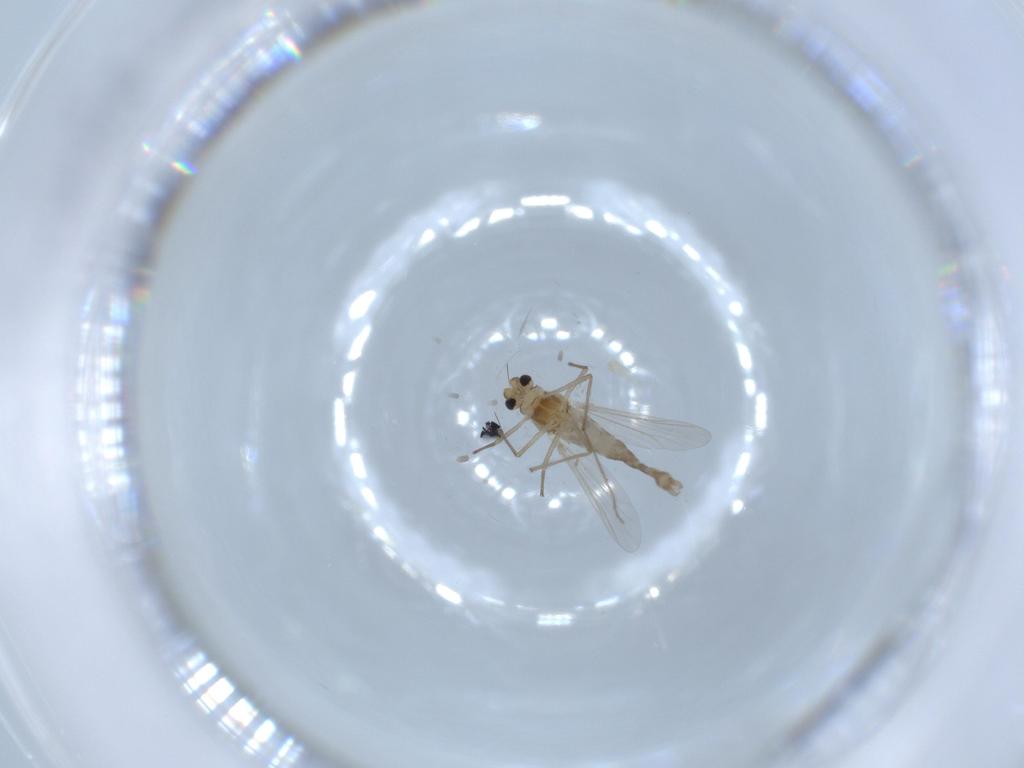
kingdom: Animalia
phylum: Arthropoda
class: Insecta
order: Diptera
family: Chironomidae
